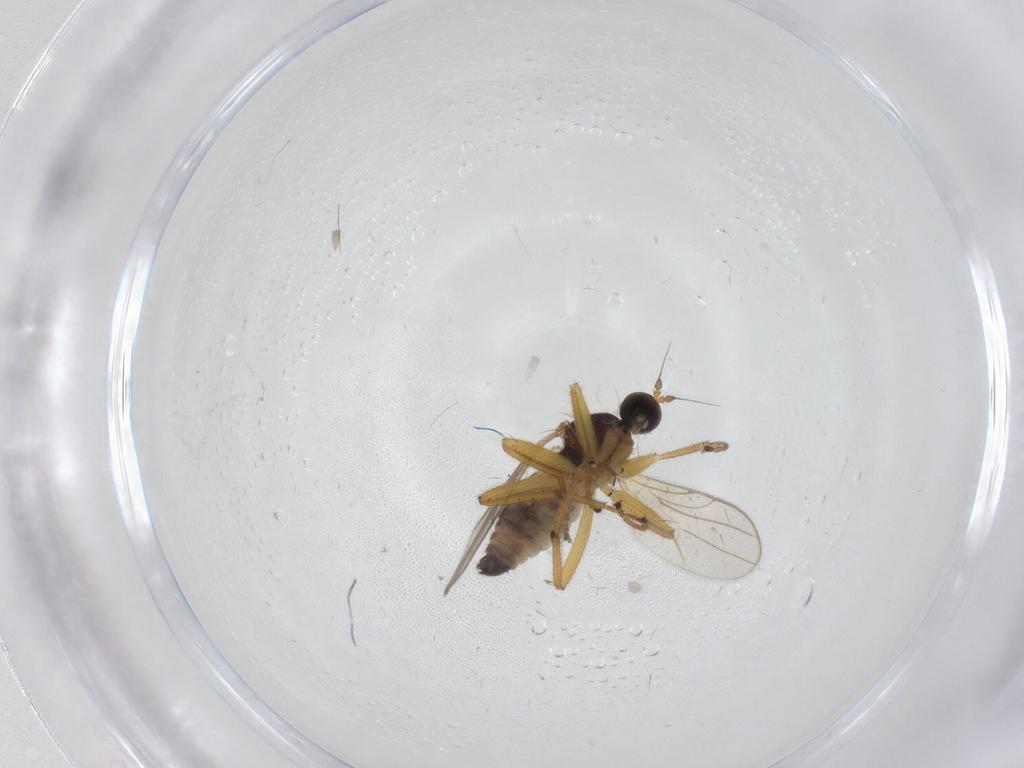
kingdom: Animalia
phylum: Arthropoda
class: Insecta
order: Diptera
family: Hybotidae
